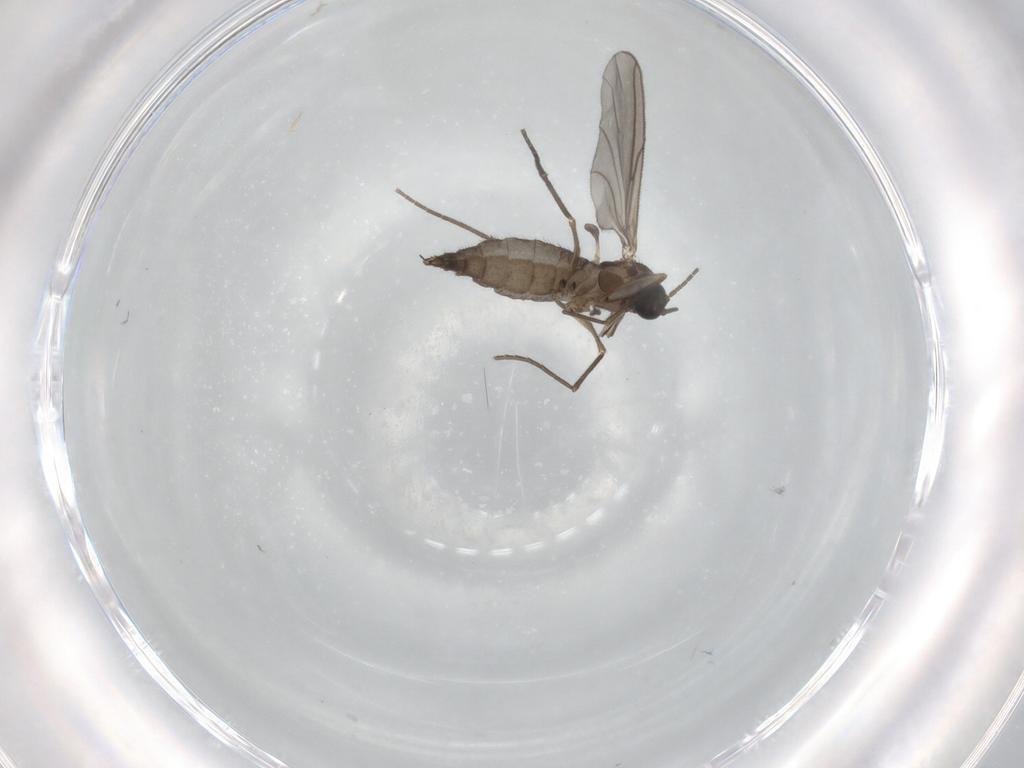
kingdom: Animalia
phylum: Arthropoda
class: Insecta
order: Diptera
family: Sciaridae
